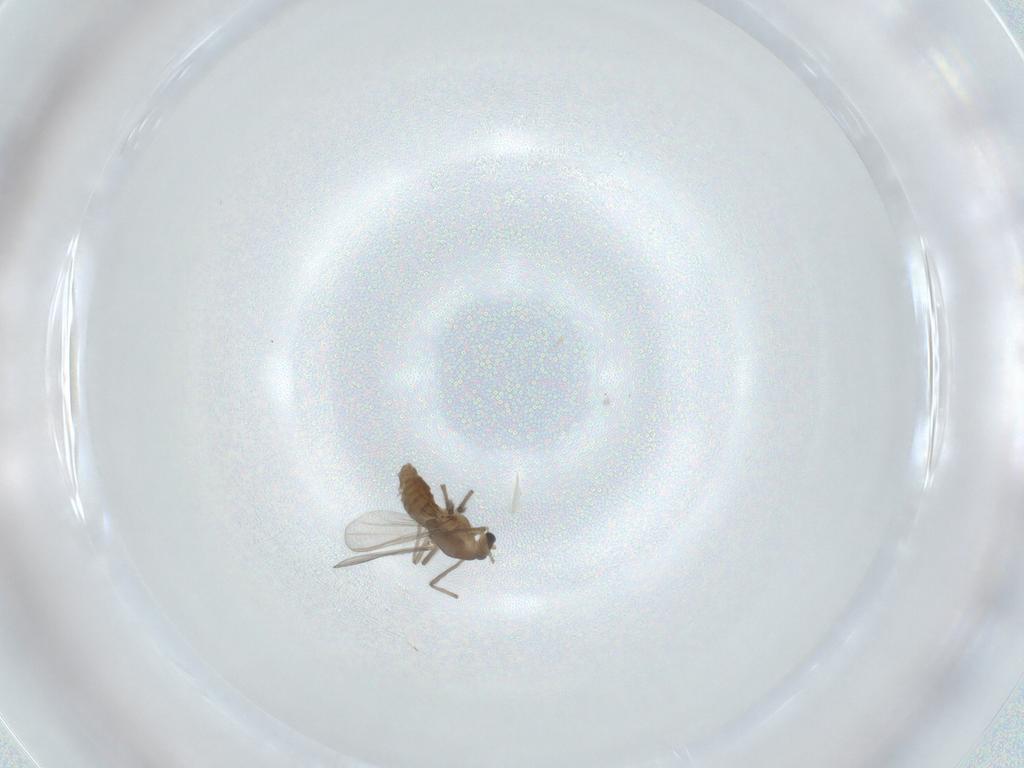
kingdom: Animalia
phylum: Arthropoda
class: Insecta
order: Diptera
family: Chironomidae
